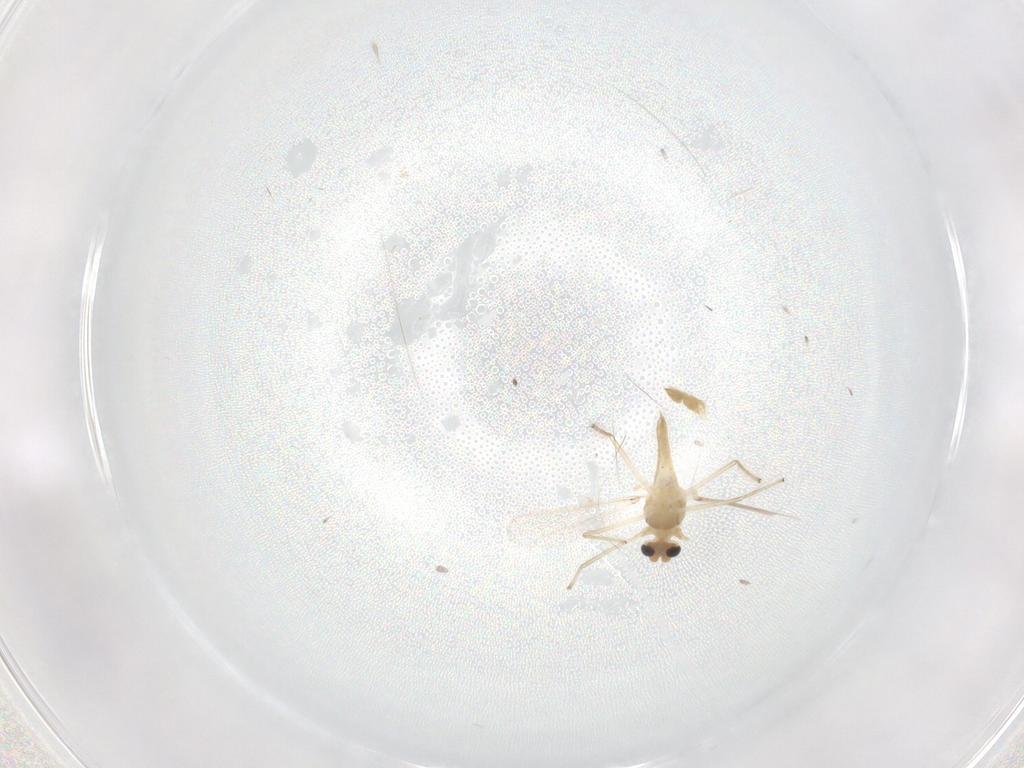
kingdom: Animalia
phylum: Arthropoda
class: Insecta
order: Diptera
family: Chironomidae
